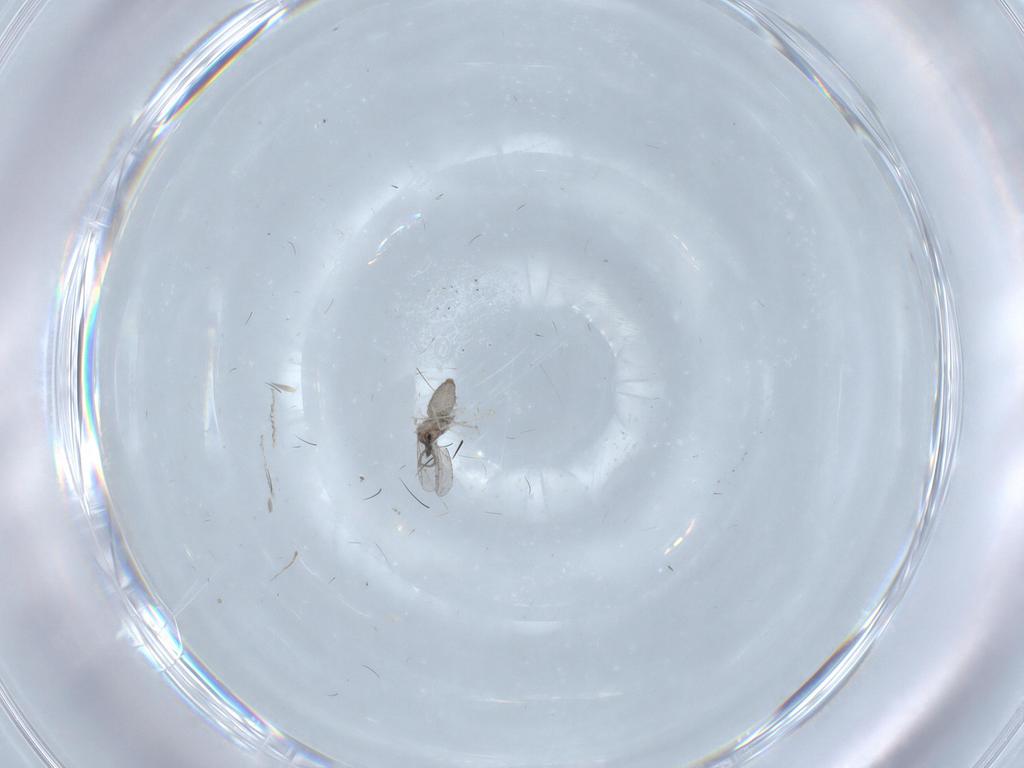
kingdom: Animalia
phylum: Arthropoda
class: Insecta
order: Diptera
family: Cecidomyiidae
